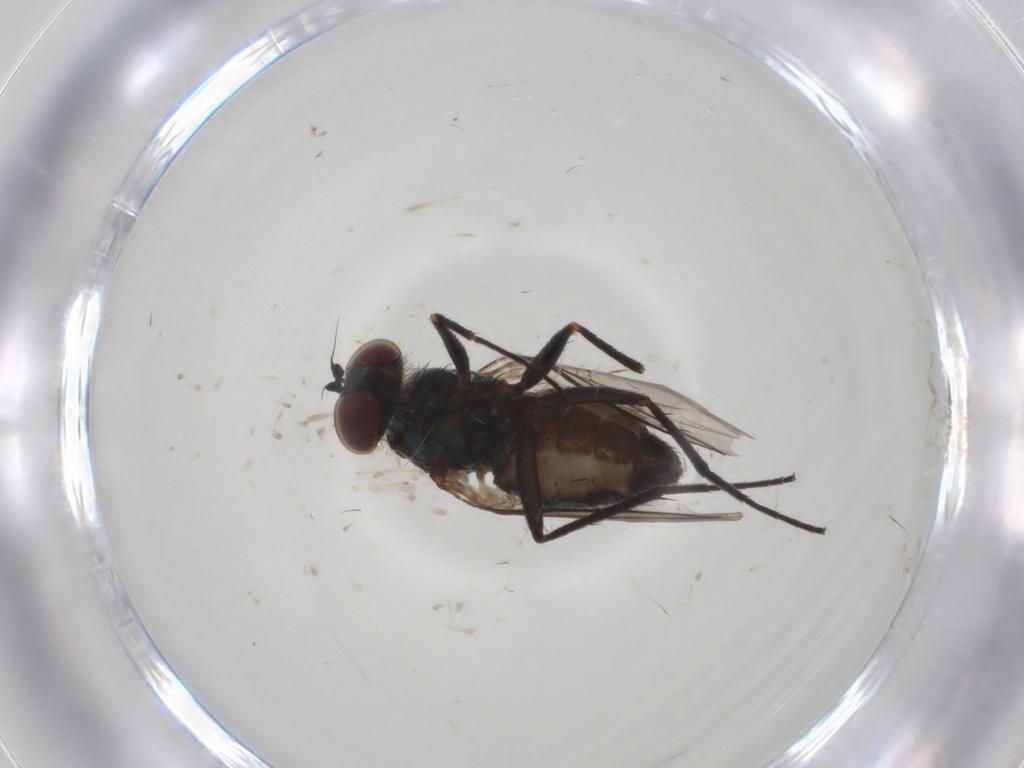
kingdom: Animalia
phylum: Arthropoda
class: Insecta
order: Diptera
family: Dolichopodidae
